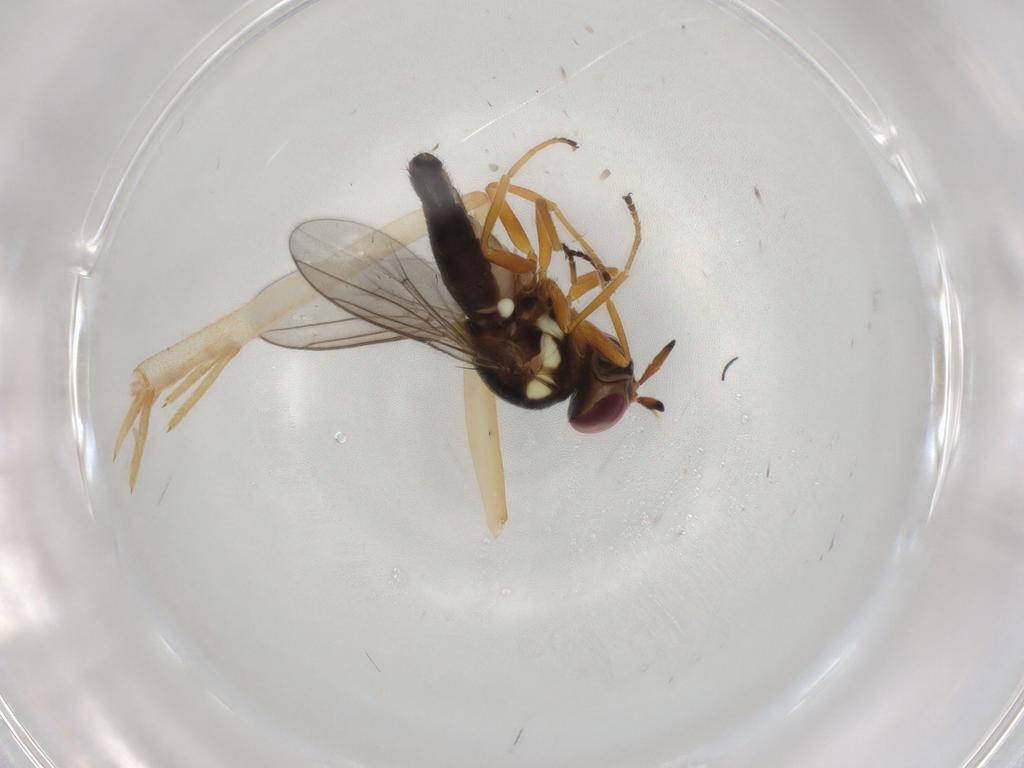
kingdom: Animalia
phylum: Arthropoda
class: Insecta
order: Diptera
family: Chloropidae
